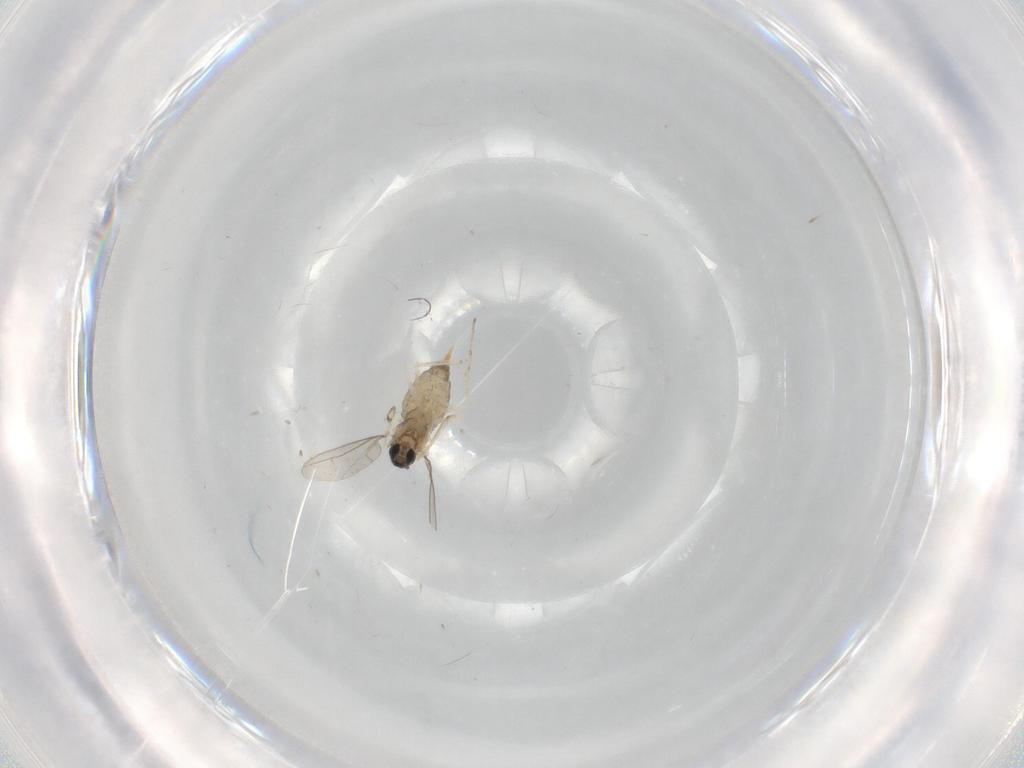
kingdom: Animalia
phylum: Arthropoda
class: Insecta
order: Diptera
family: Cecidomyiidae
